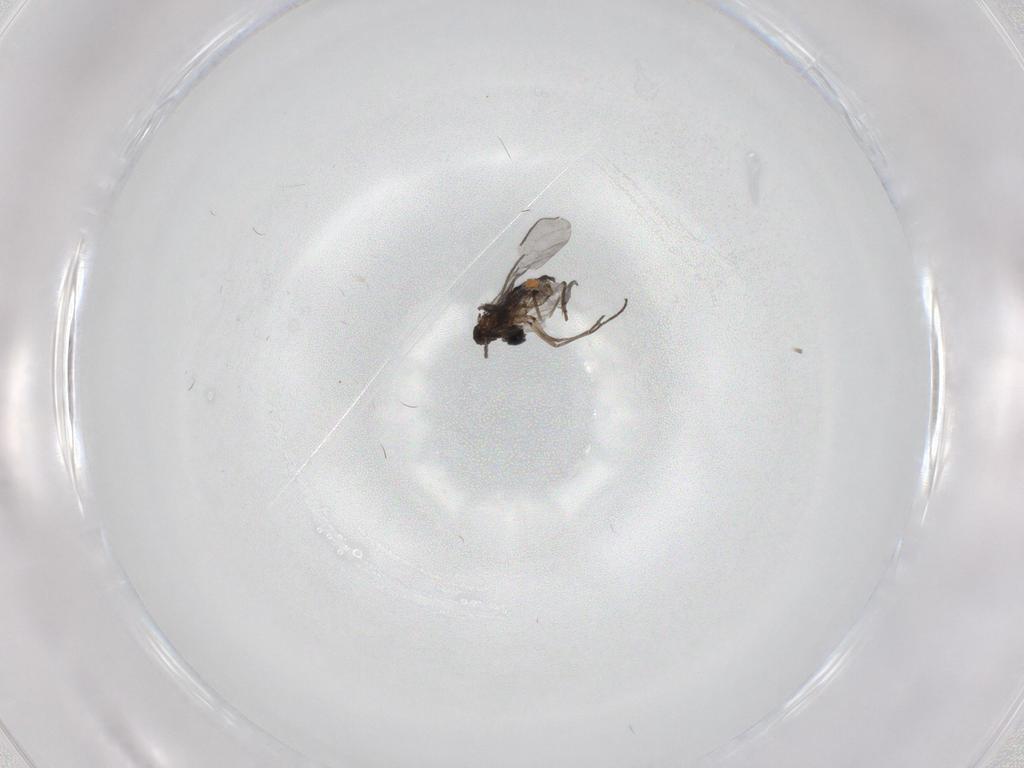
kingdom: Animalia
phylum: Arthropoda
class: Insecta
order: Diptera
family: Sciaridae
